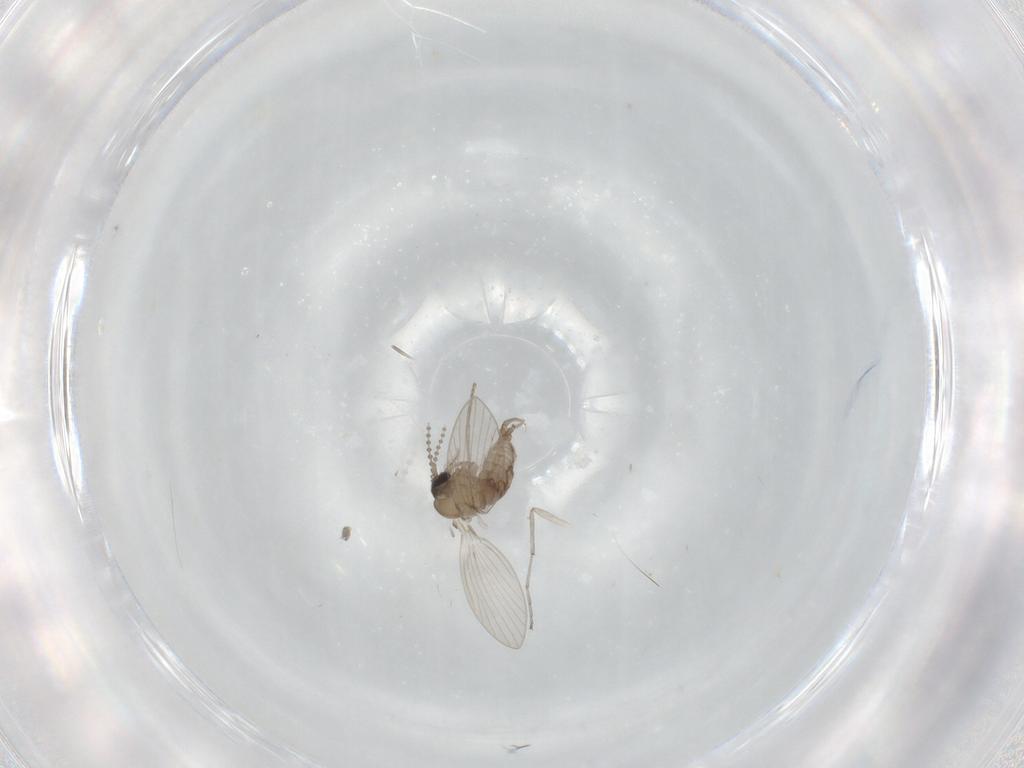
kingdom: Animalia
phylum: Arthropoda
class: Insecta
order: Diptera
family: Psychodidae
